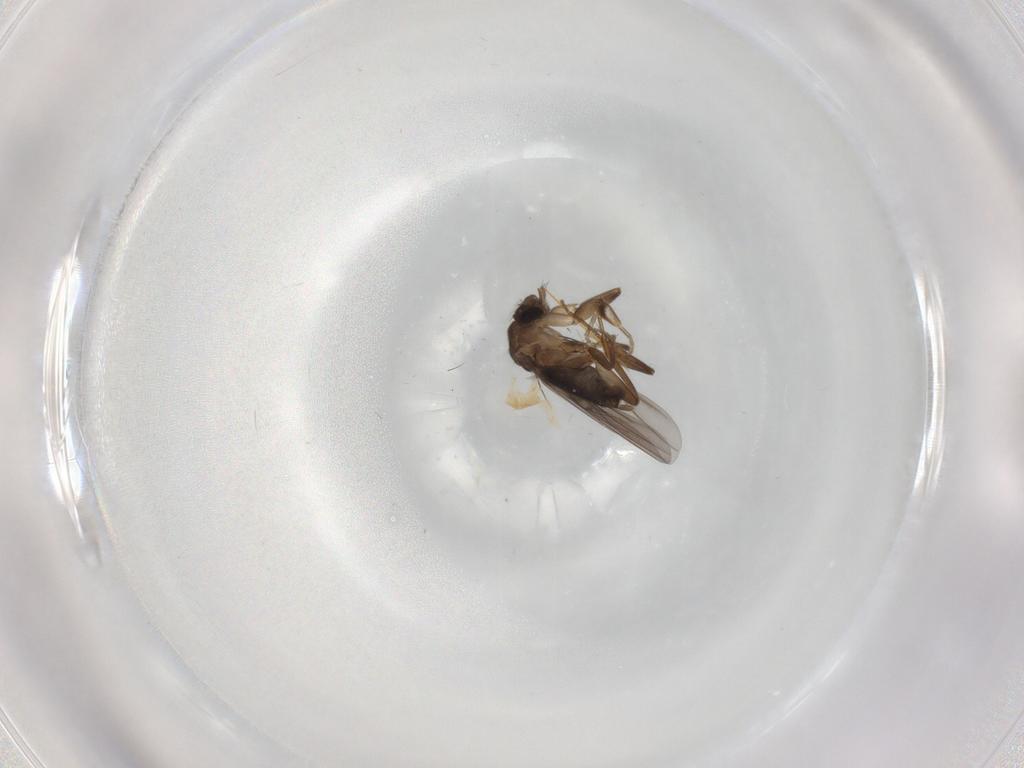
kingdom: Animalia
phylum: Arthropoda
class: Insecta
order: Diptera
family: Phoridae
